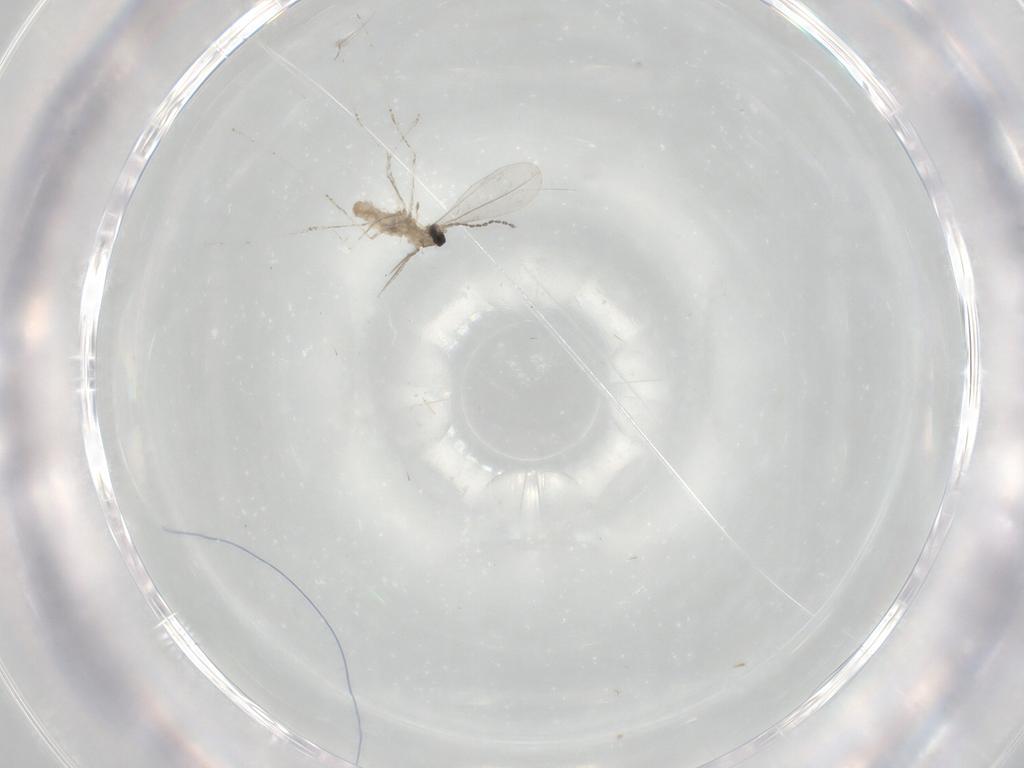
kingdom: Animalia
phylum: Arthropoda
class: Insecta
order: Diptera
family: Cecidomyiidae
